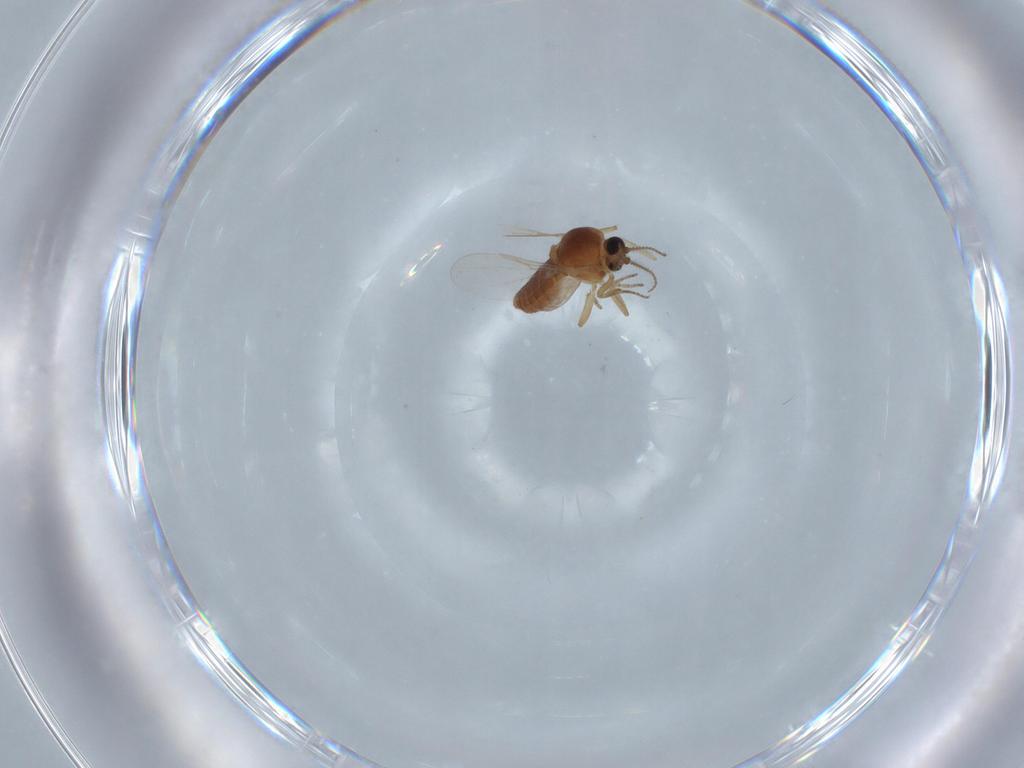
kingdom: Animalia
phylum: Arthropoda
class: Insecta
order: Diptera
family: Ceratopogonidae
